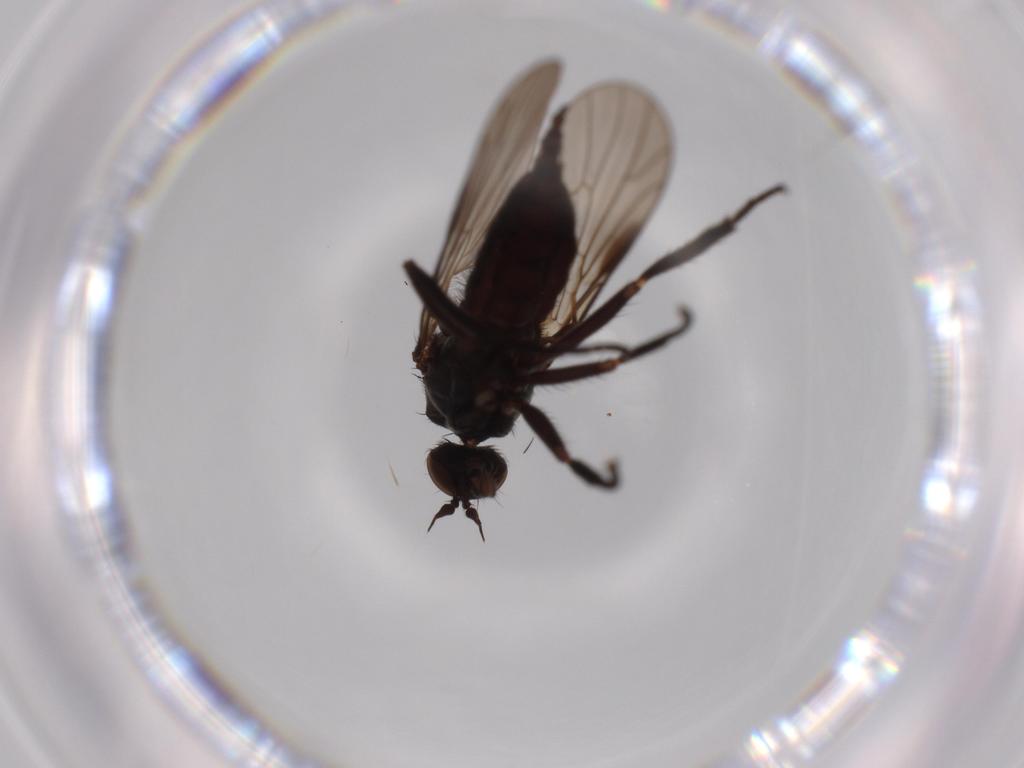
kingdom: Animalia
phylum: Arthropoda
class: Insecta
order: Diptera
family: Empididae
